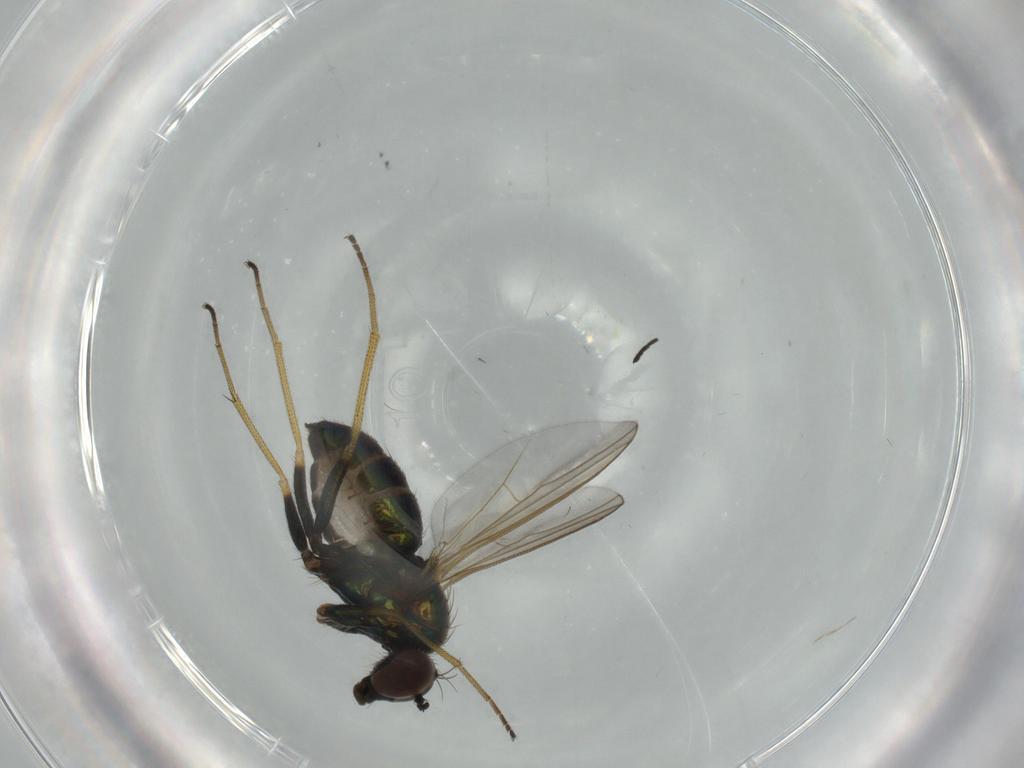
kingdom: Animalia
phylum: Arthropoda
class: Insecta
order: Diptera
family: Dolichopodidae
